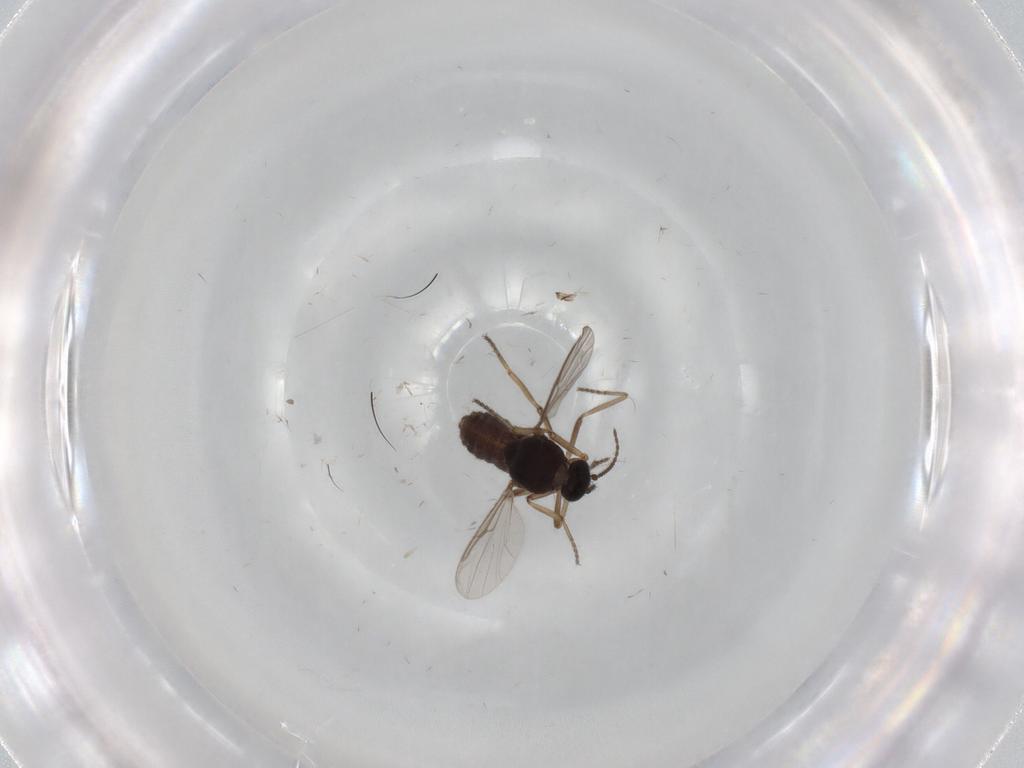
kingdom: Animalia
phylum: Arthropoda
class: Insecta
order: Diptera
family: Ceratopogonidae
